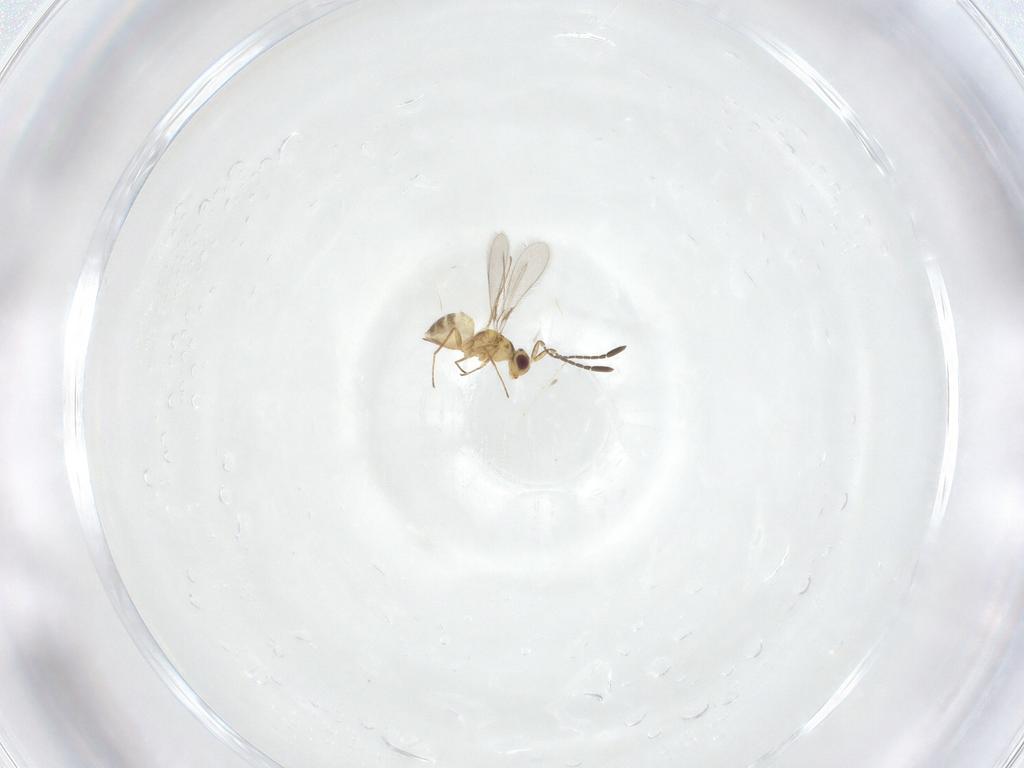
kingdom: Animalia
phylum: Arthropoda
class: Insecta
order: Hymenoptera
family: Mymaridae
